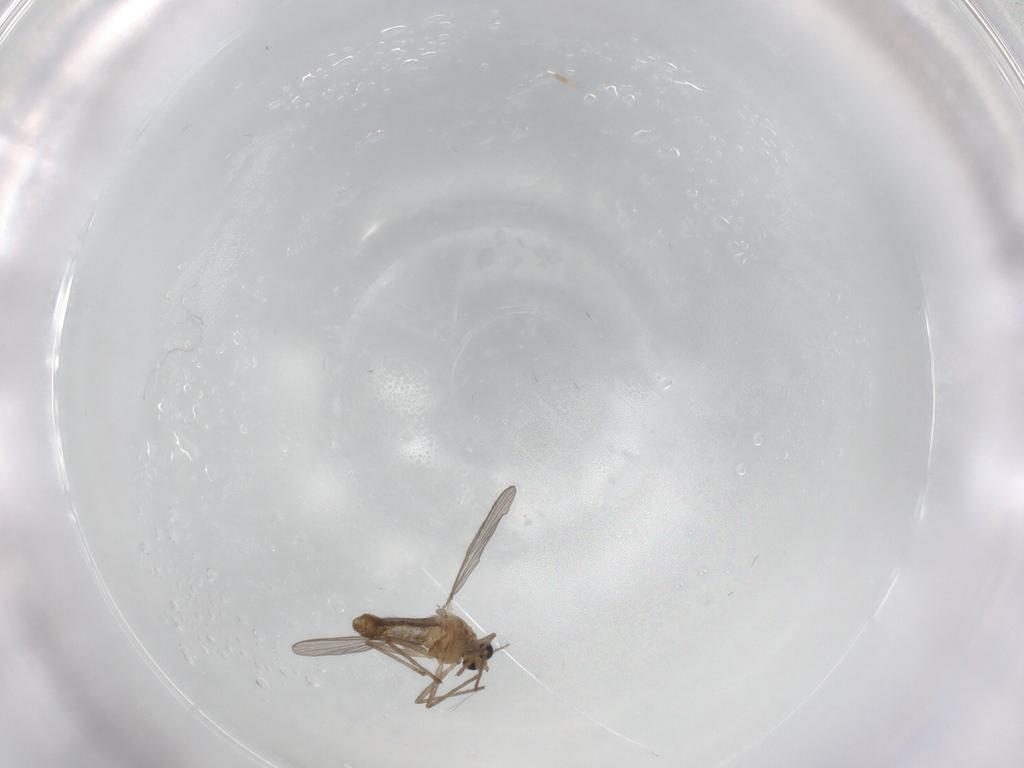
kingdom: Animalia
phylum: Arthropoda
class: Insecta
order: Diptera
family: Chironomidae
